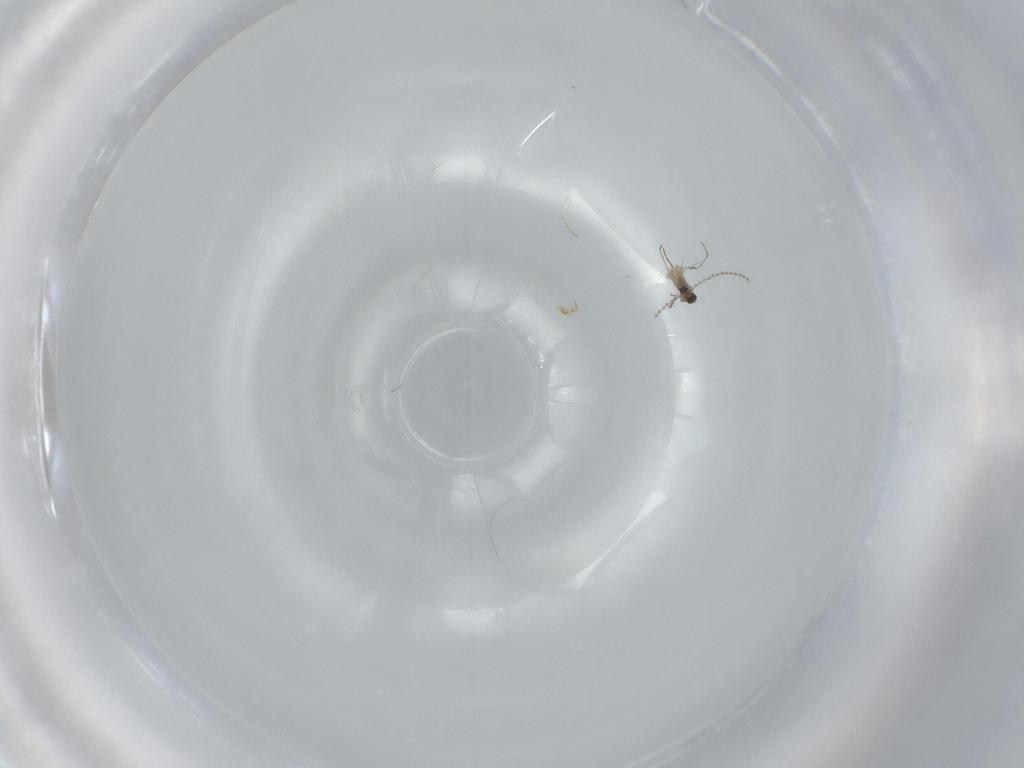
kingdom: Animalia
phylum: Arthropoda
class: Insecta
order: Diptera
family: Cecidomyiidae
